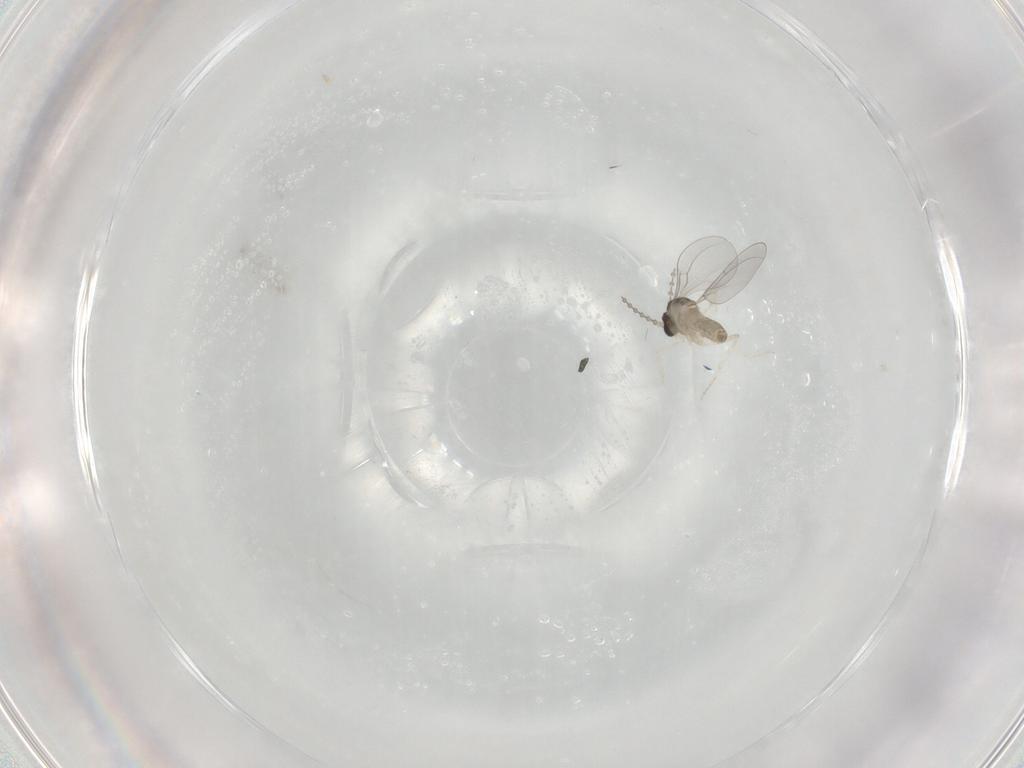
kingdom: Animalia
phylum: Arthropoda
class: Insecta
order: Diptera
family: Cecidomyiidae
